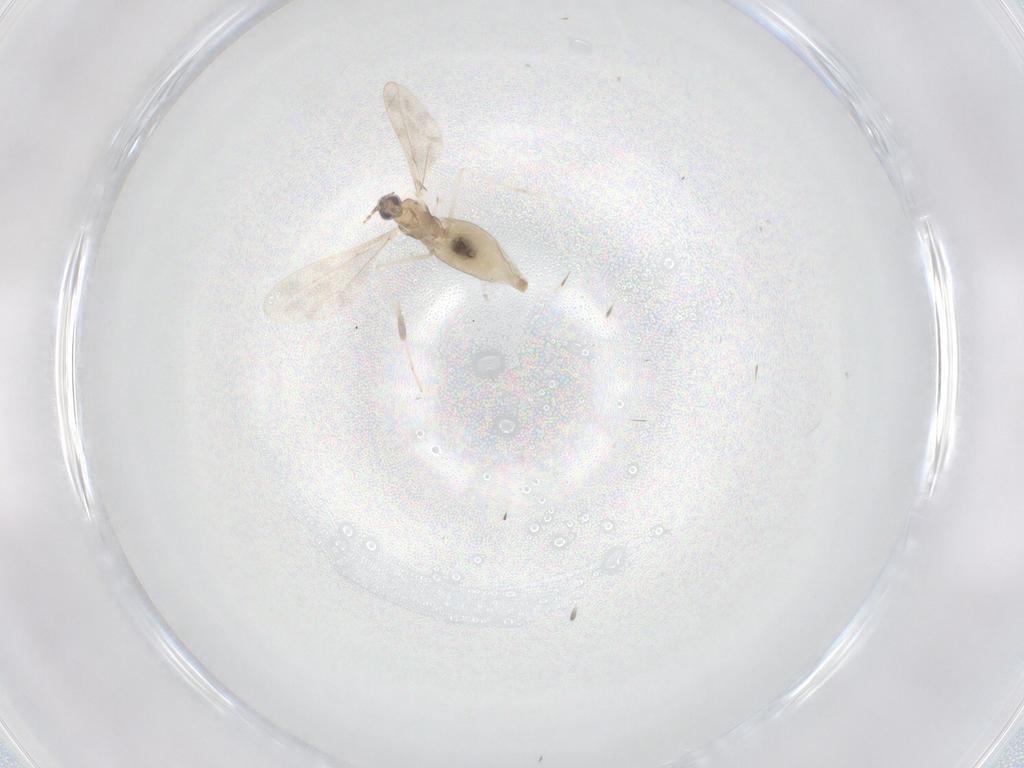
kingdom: Animalia
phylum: Arthropoda
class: Insecta
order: Diptera
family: Cecidomyiidae
